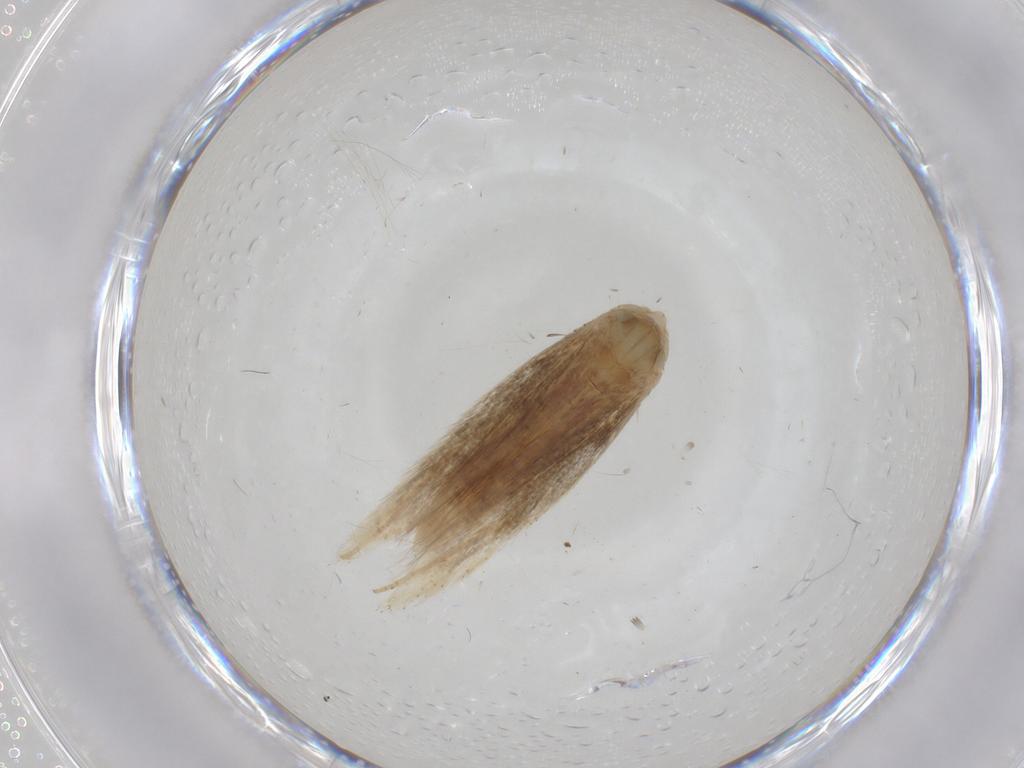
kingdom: Animalia
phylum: Arthropoda
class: Insecta
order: Lepidoptera
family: Bedelliidae
